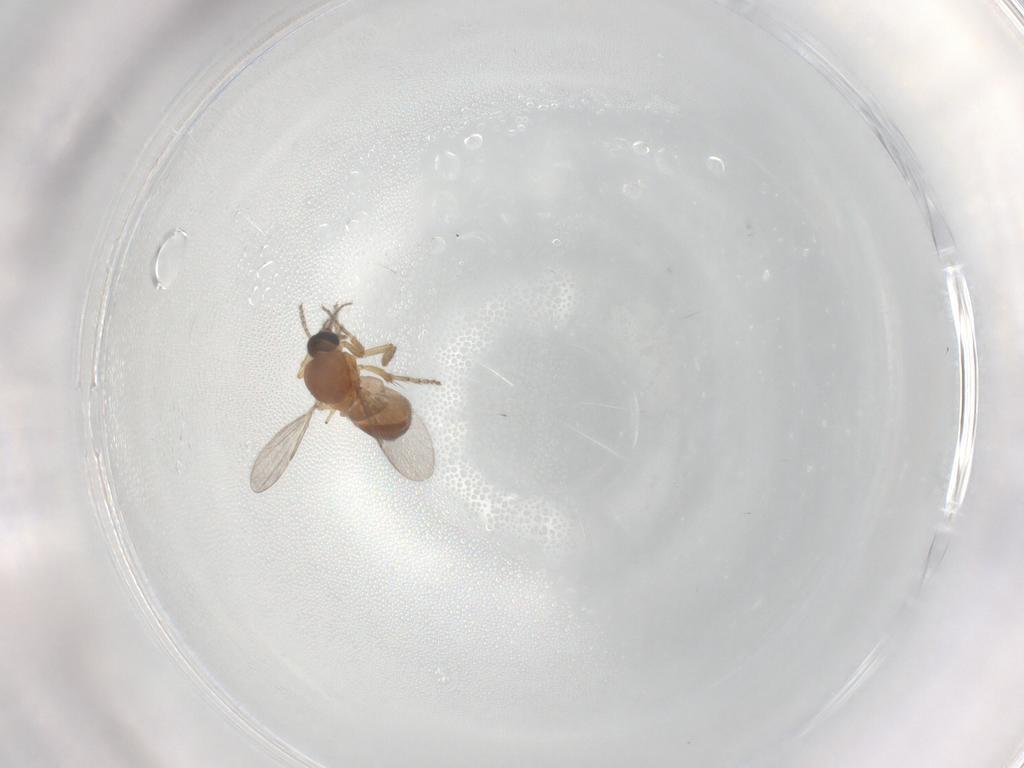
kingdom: Animalia
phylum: Arthropoda
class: Insecta
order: Diptera
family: Ceratopogonidae
